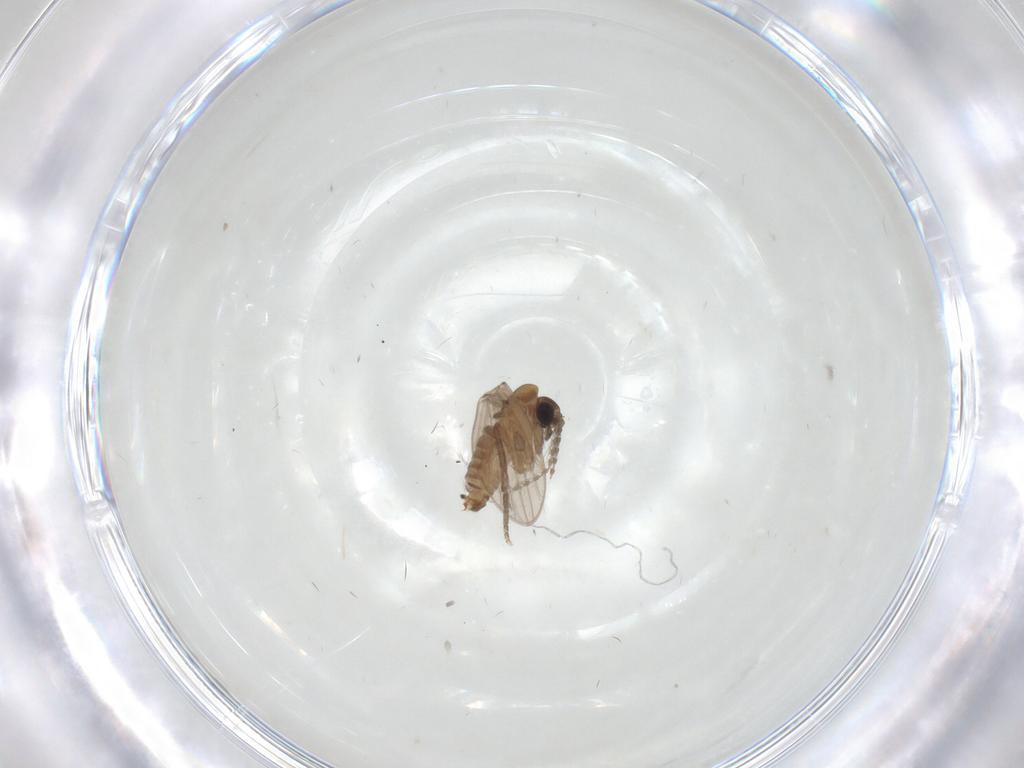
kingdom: Animalia
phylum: Arthropoda
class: Insecta
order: Diptera
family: Psychodidae
